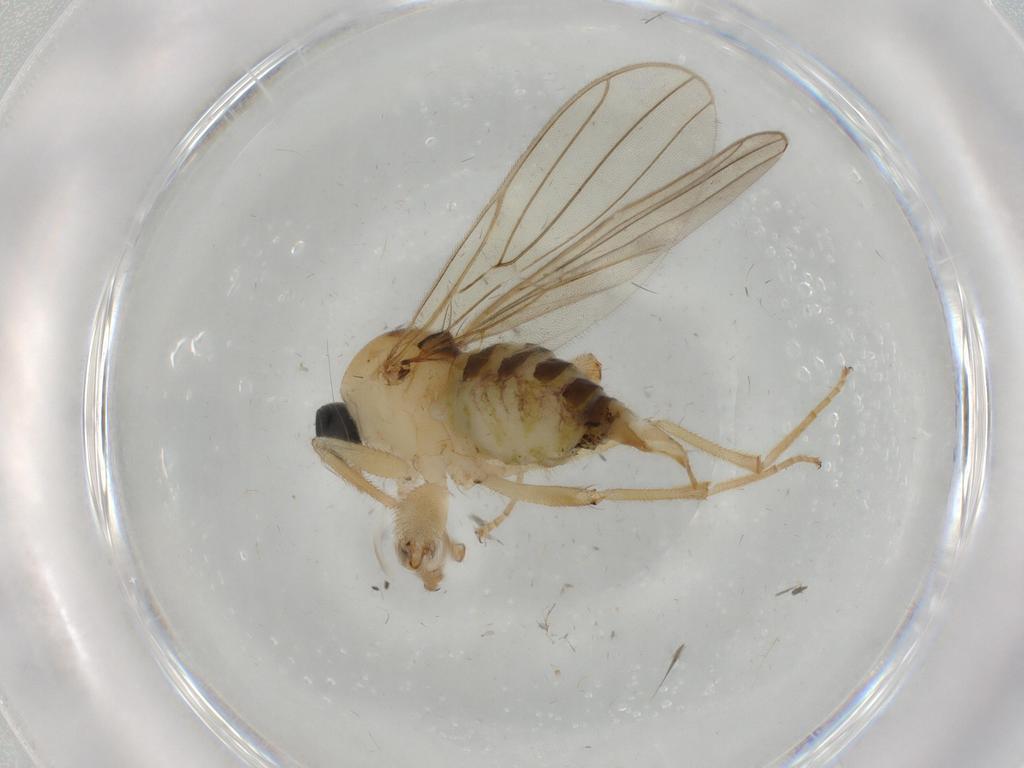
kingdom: Animalia
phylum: Arthropoda
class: Insecta
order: Diptera
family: Hybotidae
